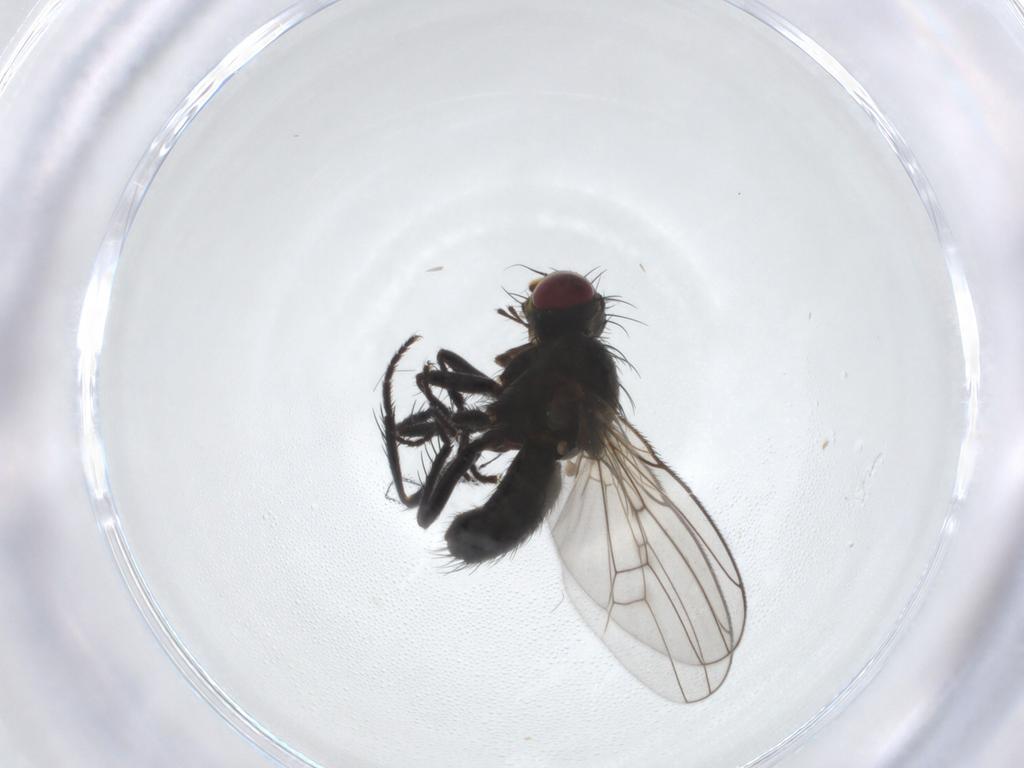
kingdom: Animalia
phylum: Arthropoda
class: Insecta
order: Diptera
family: Muscidae
